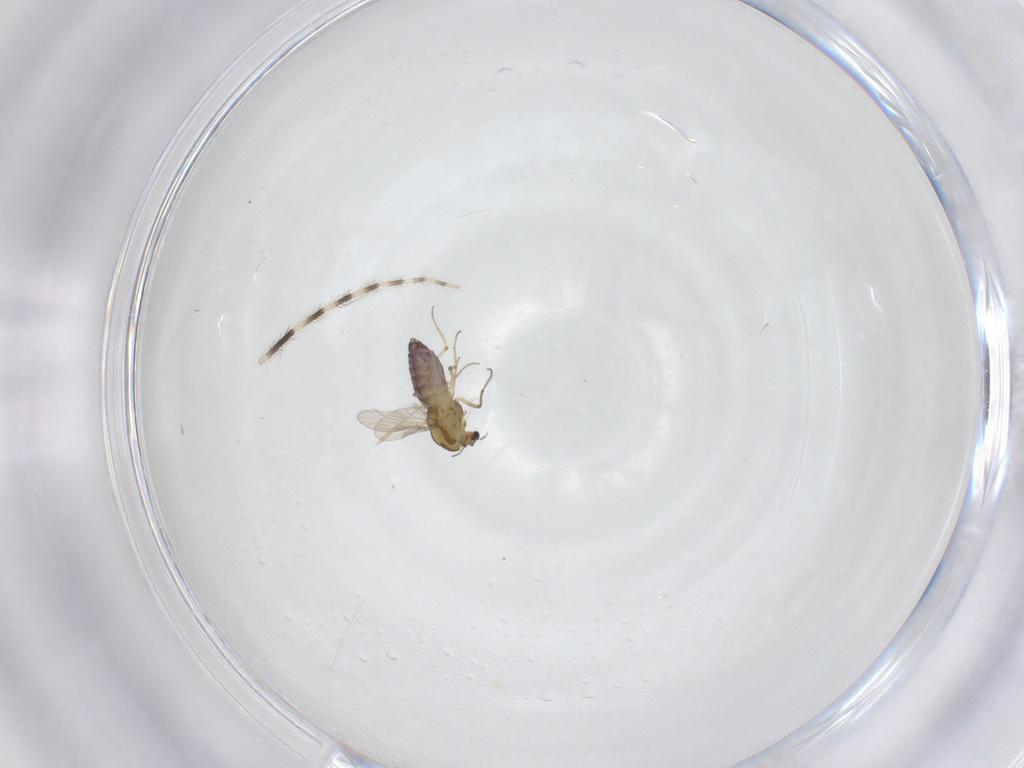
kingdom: Animalia
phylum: Arthropoda
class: Insecta
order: Diptera
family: Chironomidae
